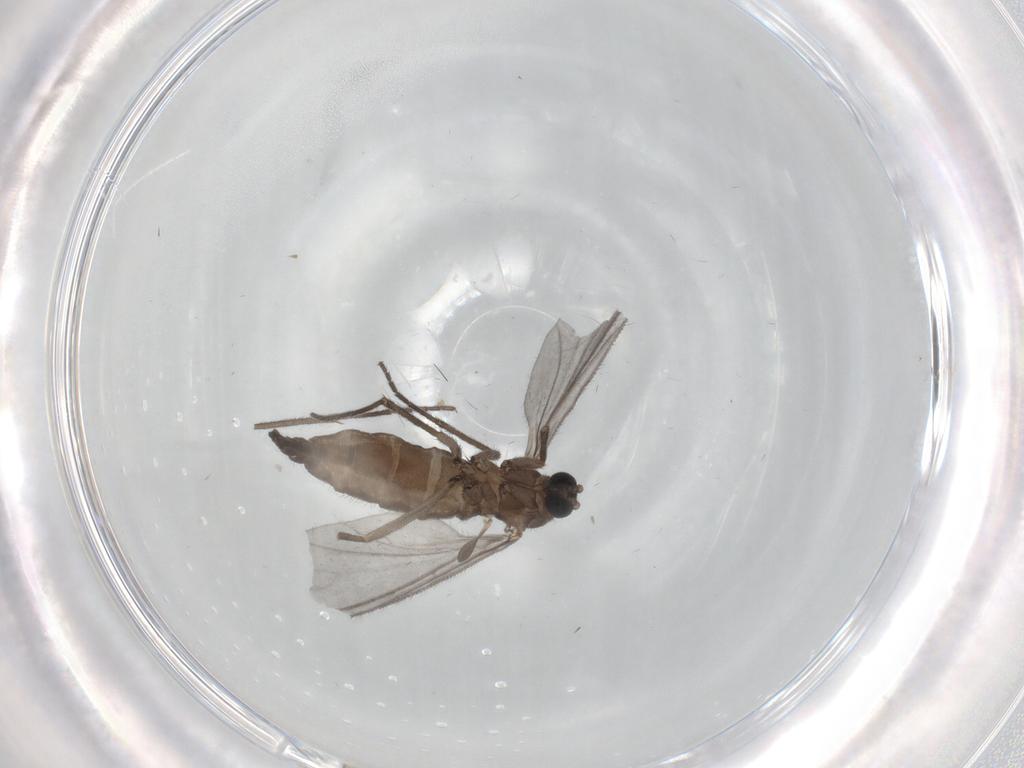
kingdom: Animalia
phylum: Arthropoda
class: Insecta
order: Diptera
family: Sciaridae
